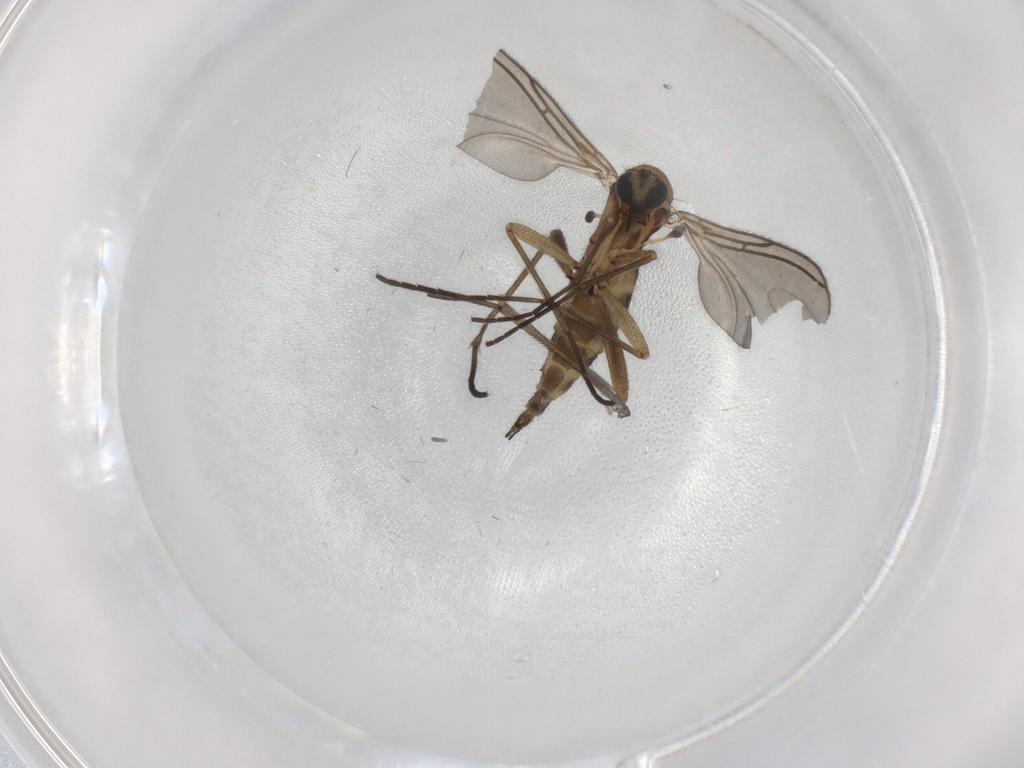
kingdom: Animalia
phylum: Arthropoda
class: Insecta
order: Diptera
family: Sciaridae
